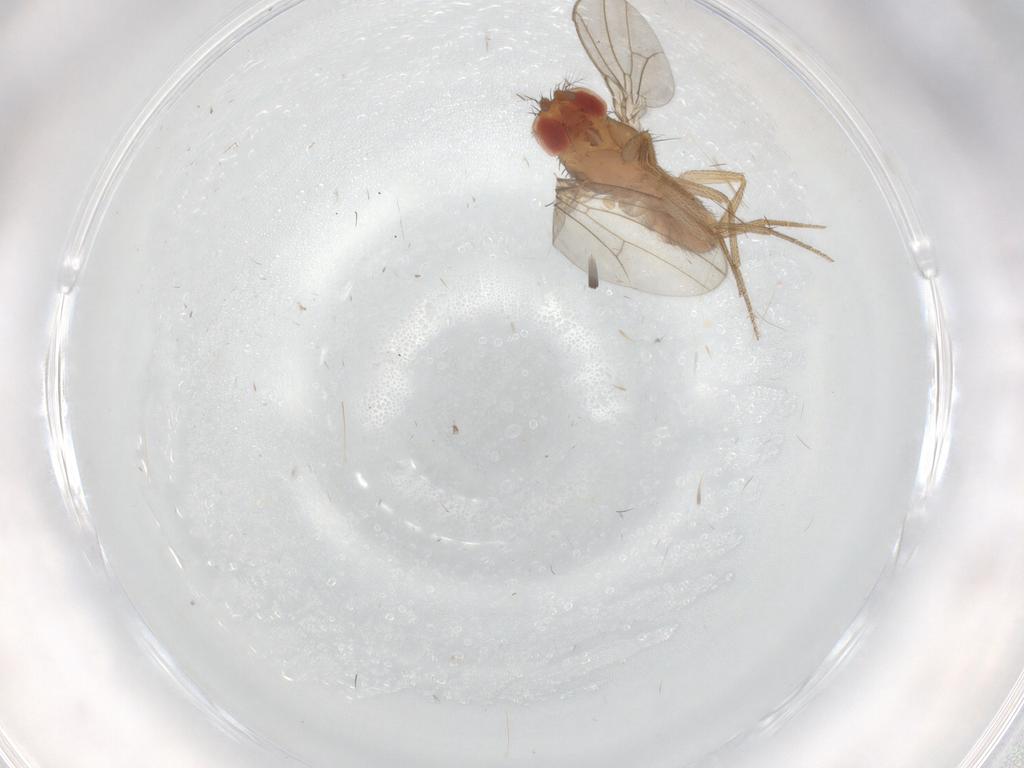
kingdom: Animalia
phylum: Arthropoda
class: Insecta
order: Diptera
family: Drosophilidae
